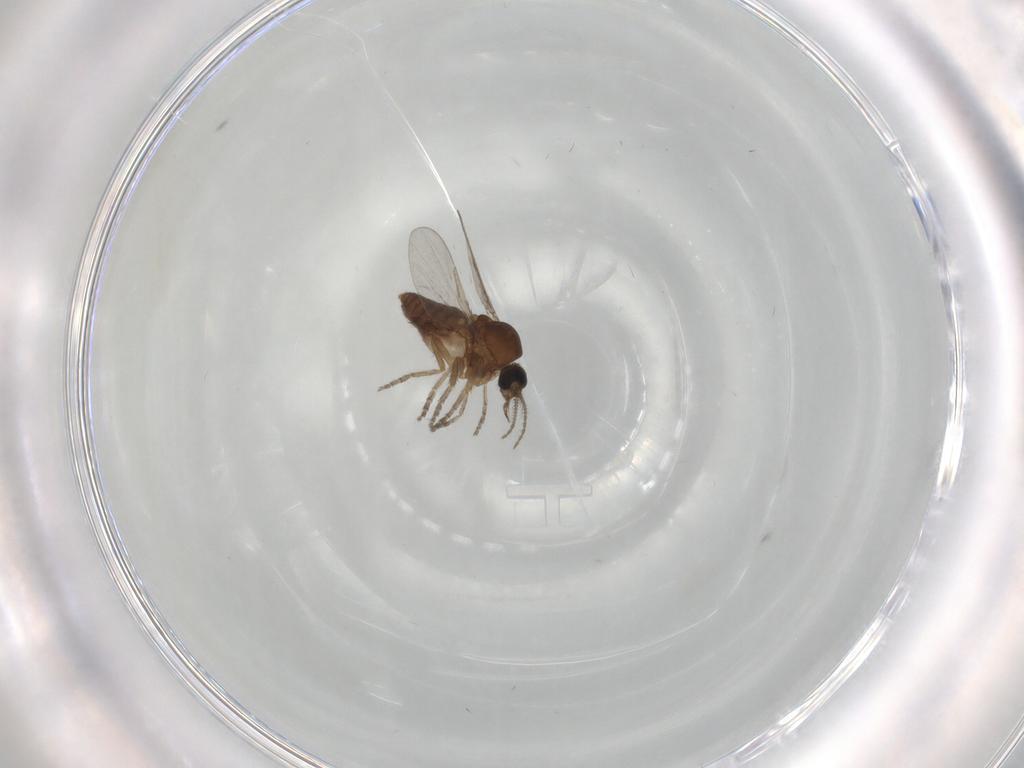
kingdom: Animalia
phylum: Arthropoda
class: Insecta
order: Diptera
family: Ceratopogonidae
